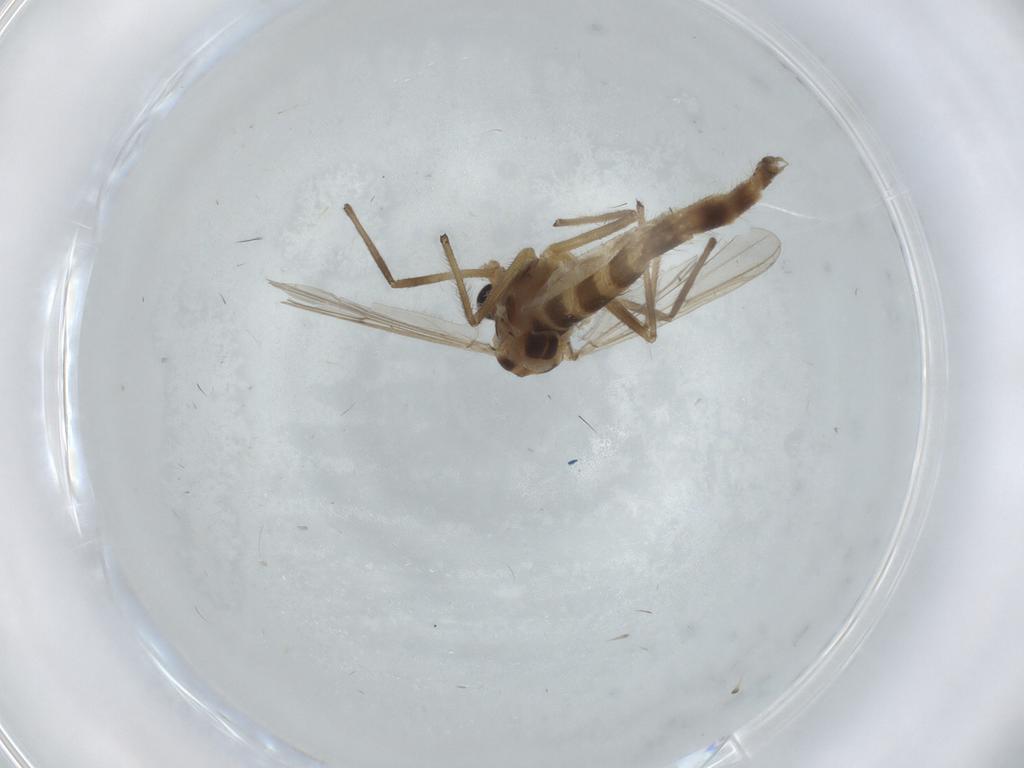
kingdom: Animalia
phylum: Arthropoda
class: Insecta
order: Diptera
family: Chironomidae
